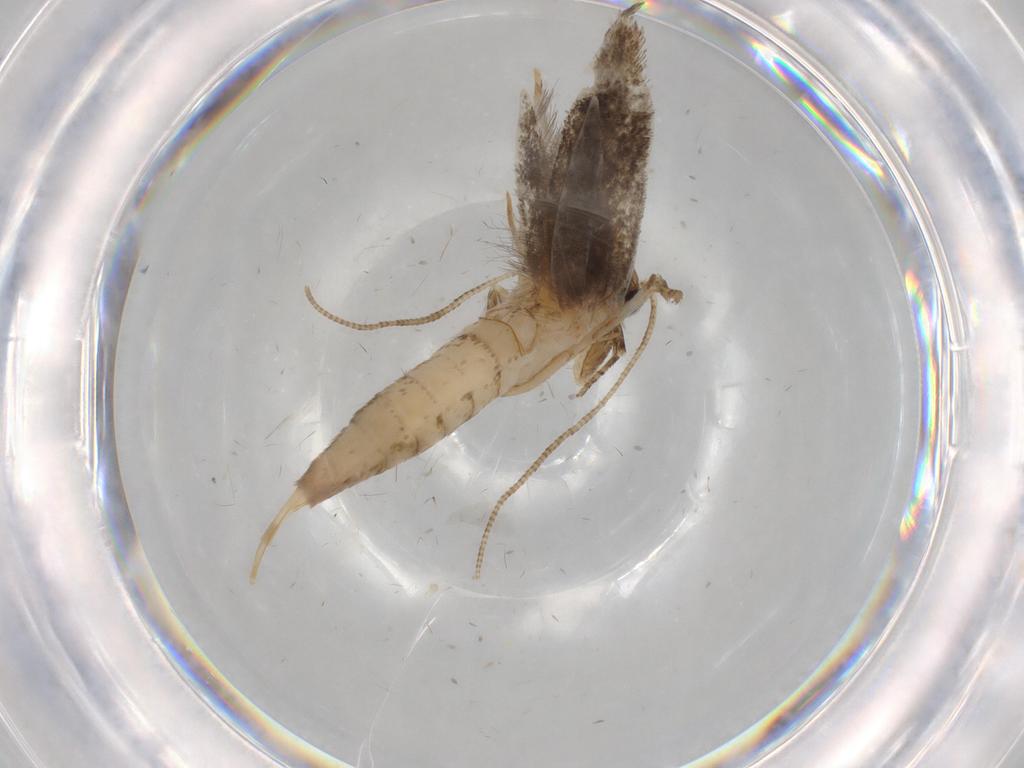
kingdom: Animalia
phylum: Arthropoda
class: Insecta
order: Lepidoptera
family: Tineidae
